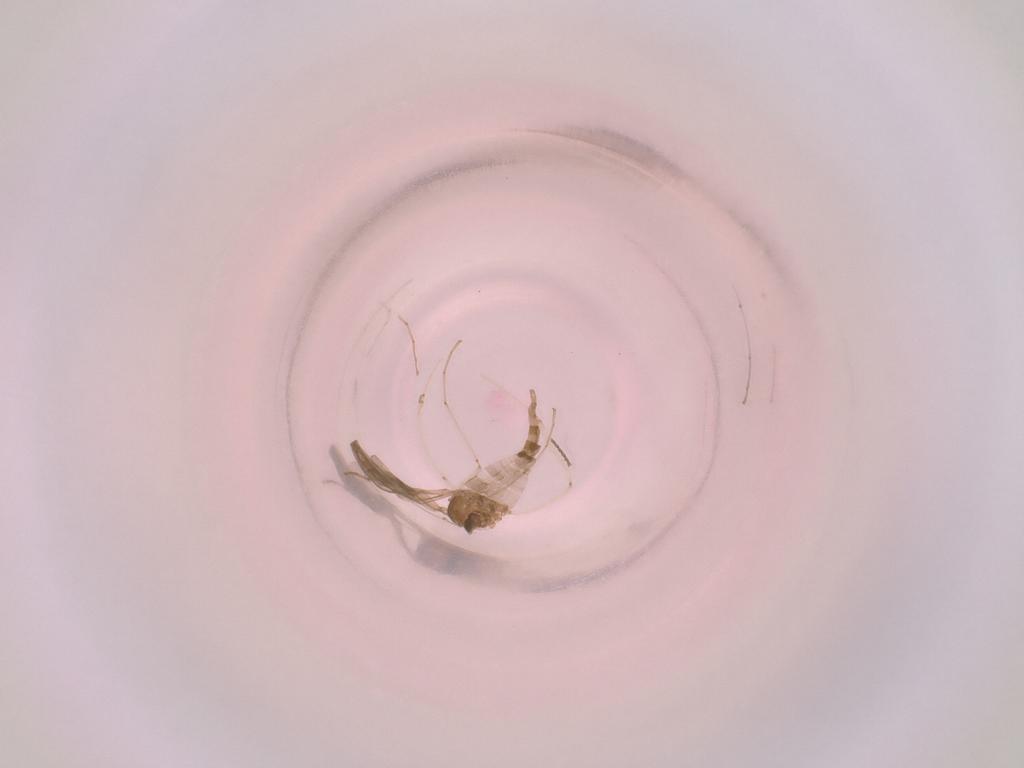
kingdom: Animalia
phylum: Arthropoda
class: Insecta
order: Diptera
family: Cecidomyiidae
